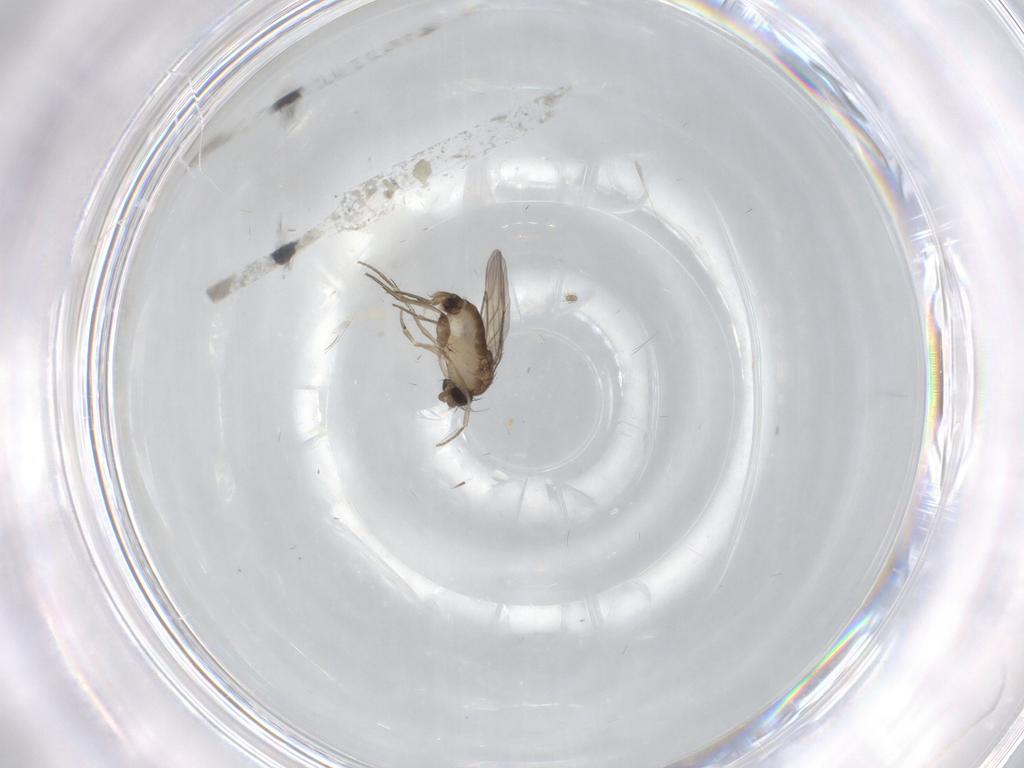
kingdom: Animalia
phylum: Arthropoda
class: Insecta
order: Diptera
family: Phoridae
